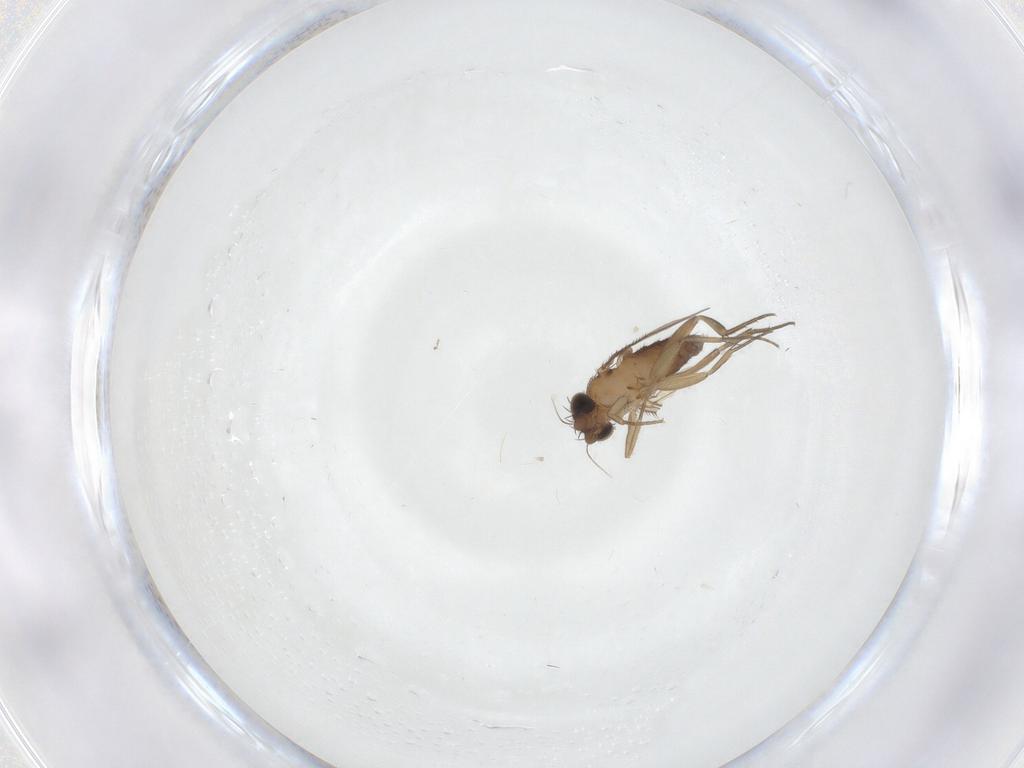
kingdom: Animalia
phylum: Arthropoda
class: Insecta
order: Diptera
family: Phoridae
